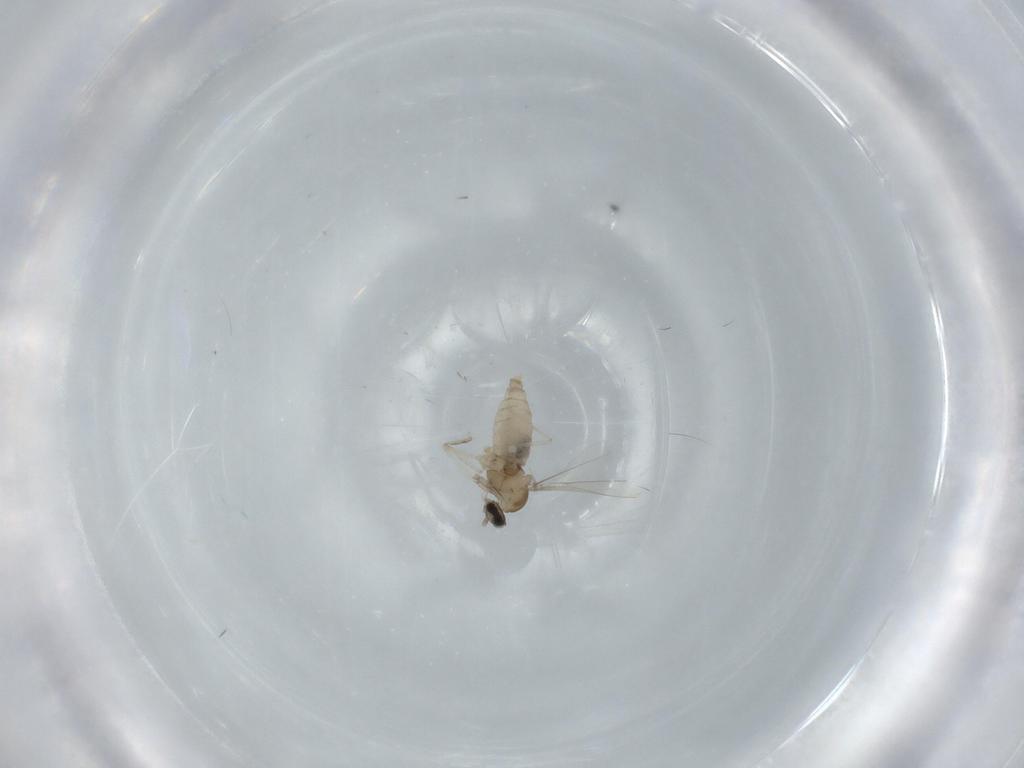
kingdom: Animalia
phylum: Arthropoda
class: Insecta
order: Diptera
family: Cecidomyiidae
